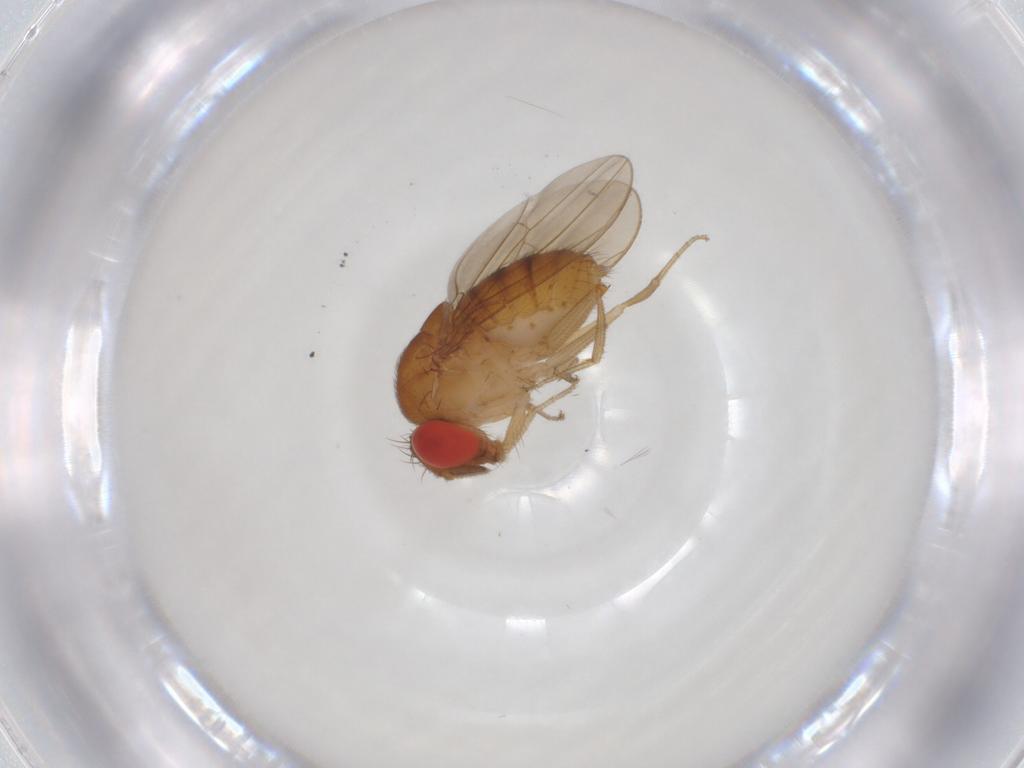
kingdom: Animalia
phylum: Arthropoda
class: Insecta
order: Diptera
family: Drosophilidae
